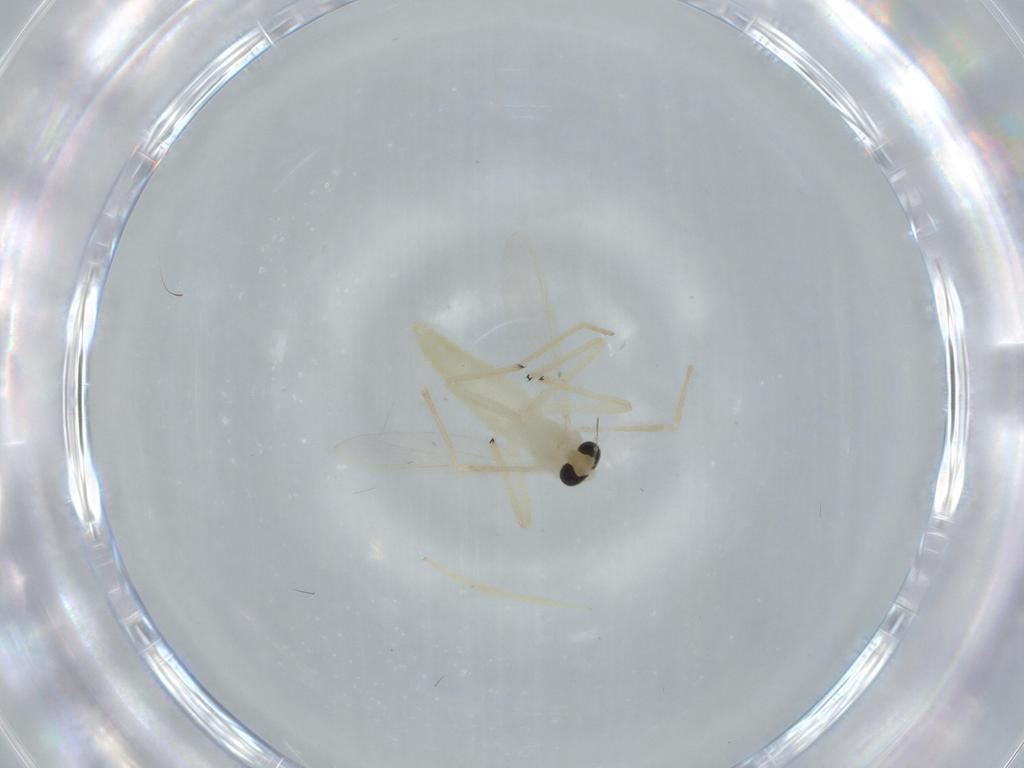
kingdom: Animalia
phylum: Arthropoda
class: Insecta
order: Diptera
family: Chironomidae
